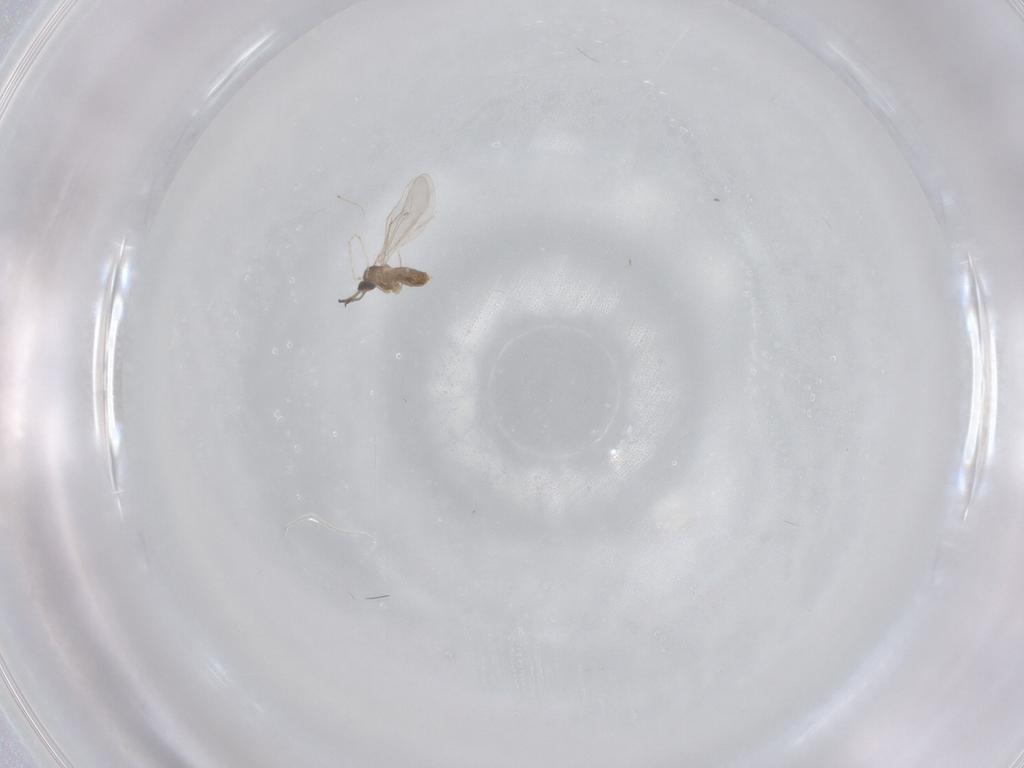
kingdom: Animalia
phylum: Arthropoda
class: Insecta
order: Diptera
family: Cecidomyiidae
